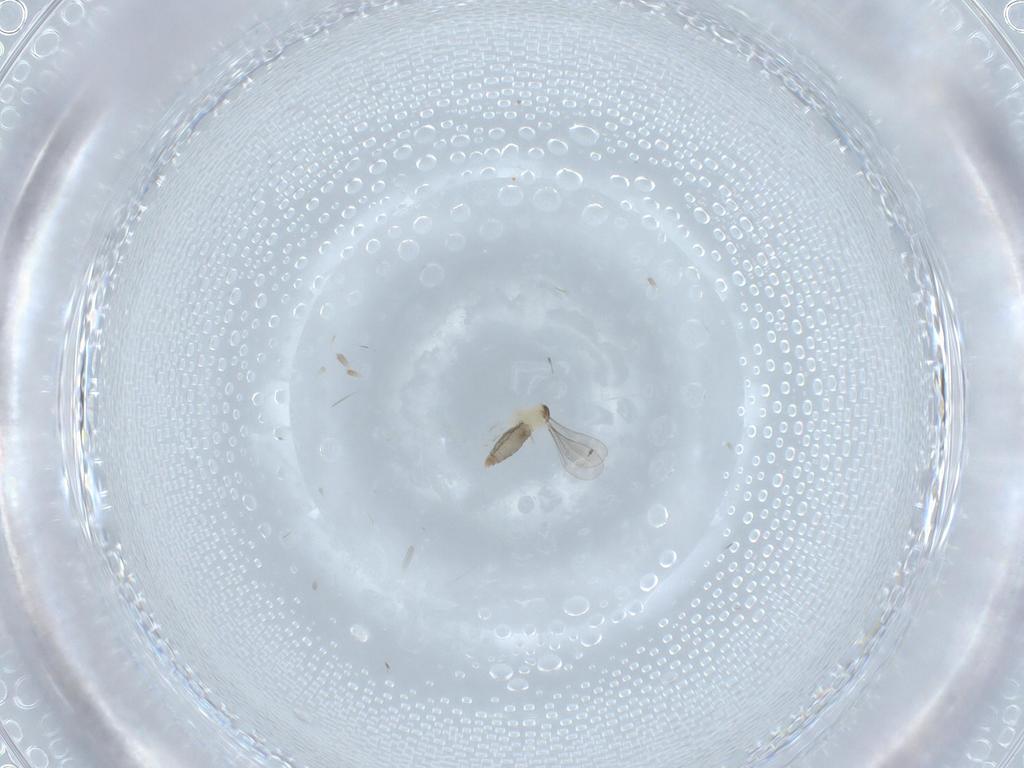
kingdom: Animalia
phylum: Arthropoda
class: Insecta
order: Diptera
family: Cecidomyiidae
